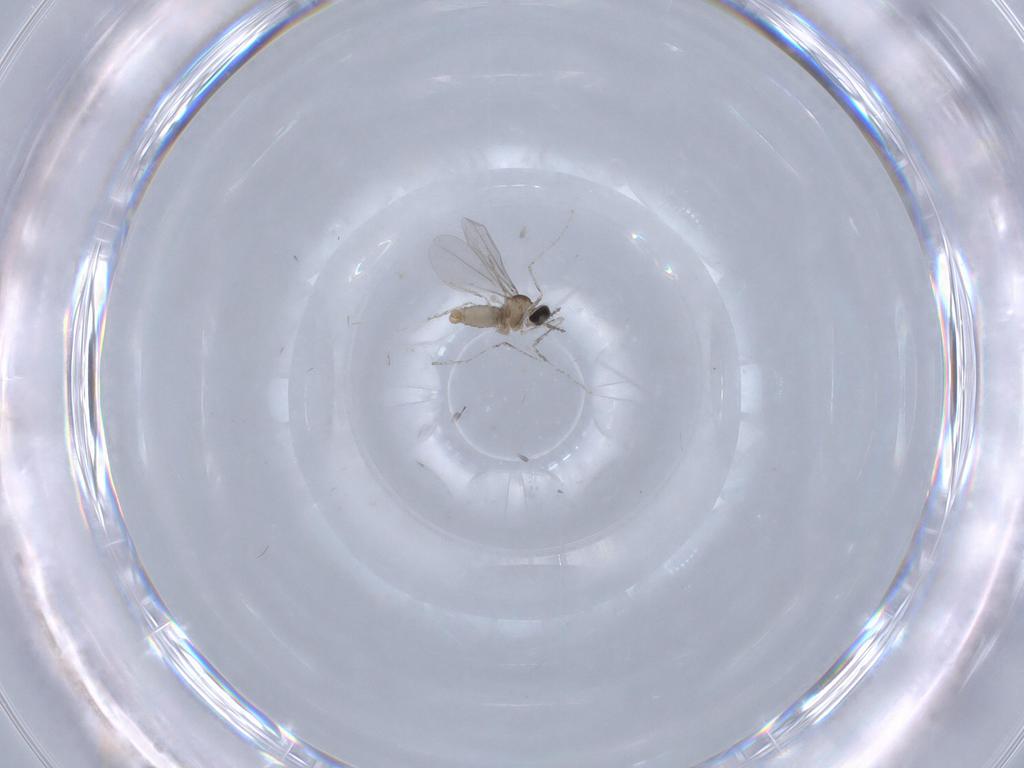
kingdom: Animalia
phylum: Arthropoda
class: Insecta
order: Diptera
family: Cecidomyiidae
